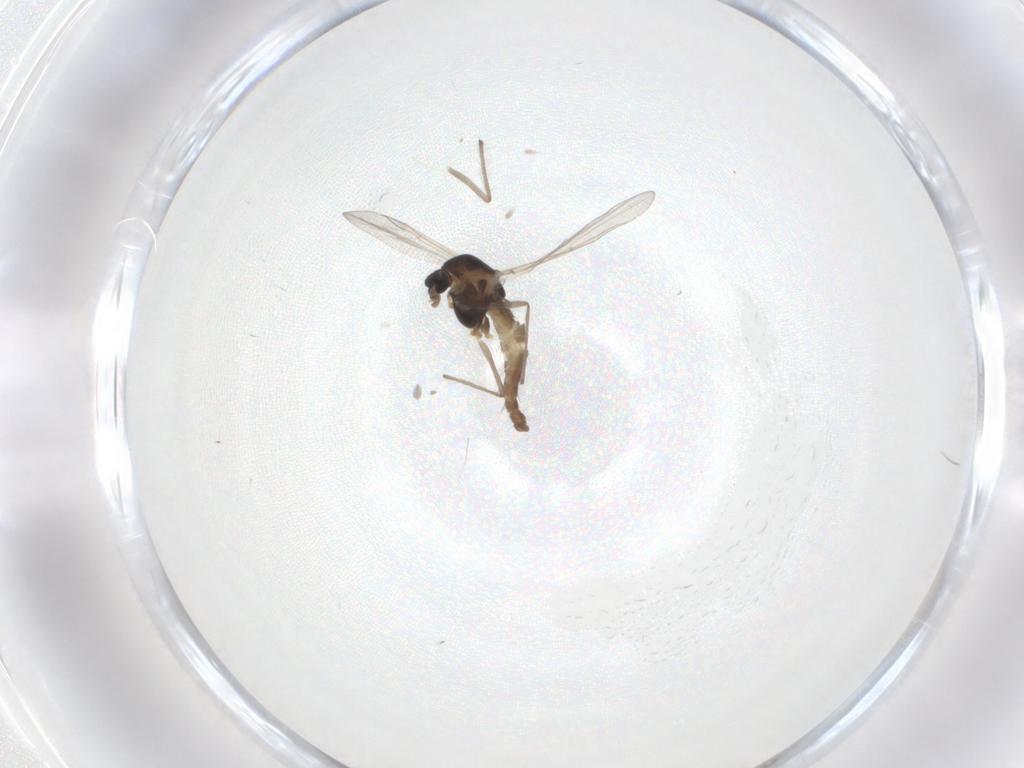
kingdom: Animalia
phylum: Arthropoda
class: Insecta
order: Diptera
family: Chironomidae
